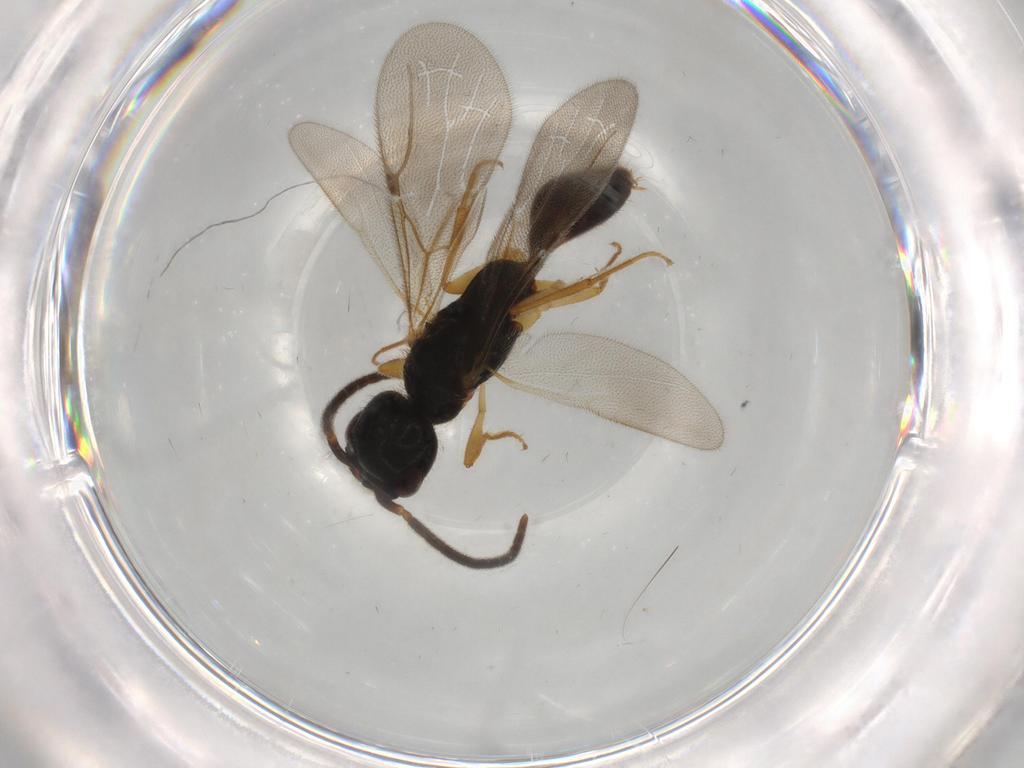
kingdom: Animalia
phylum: Arthropoda
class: Insecta
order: Hymenoptera
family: Bethylidae
